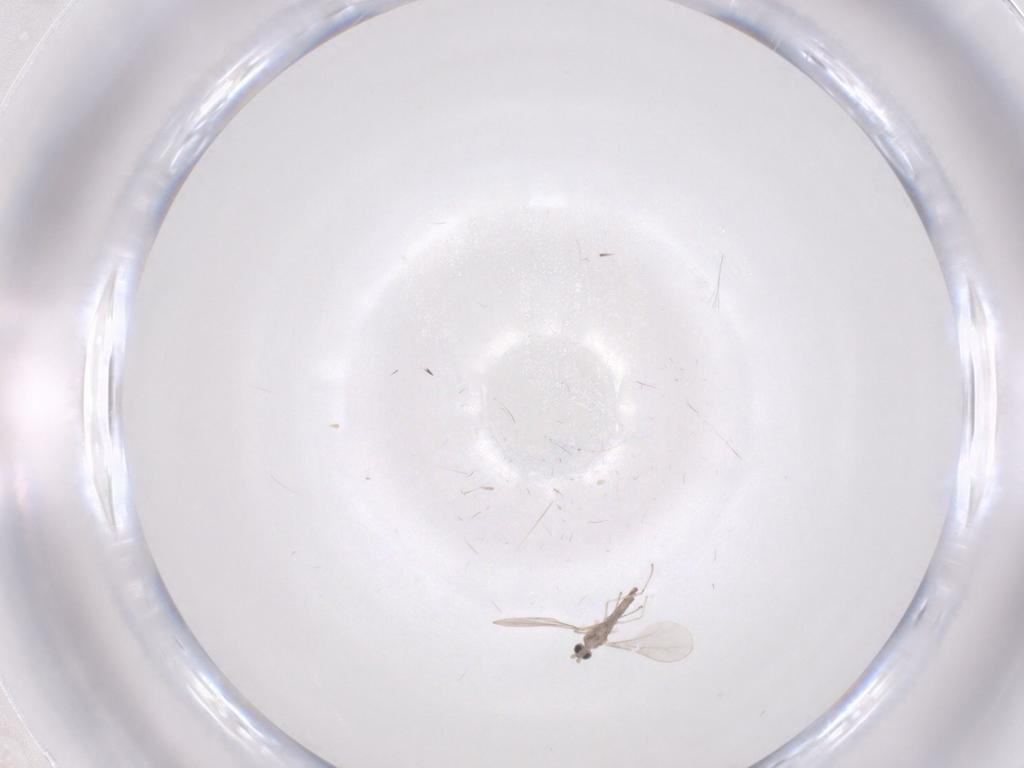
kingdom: Animalia
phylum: Arthropoda
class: Insecta
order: Diptera
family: Cecidomyiidae
